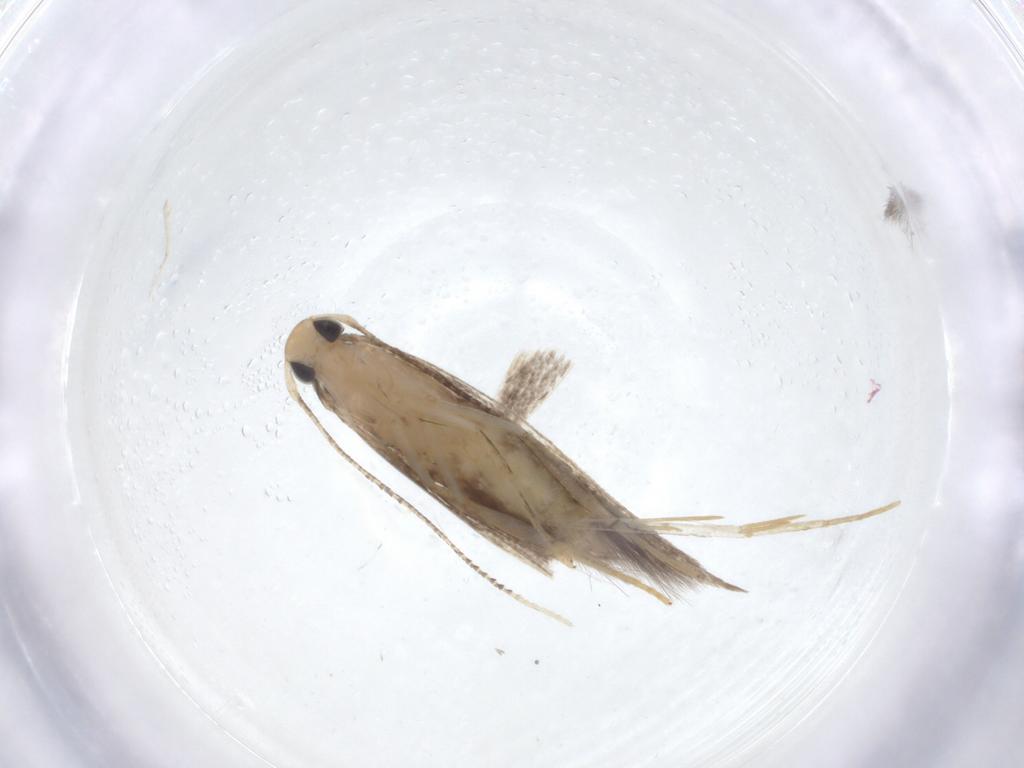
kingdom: Animalia
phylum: Arthropoda
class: Insecta
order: Lepidoptera
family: Cosmopterigidae
